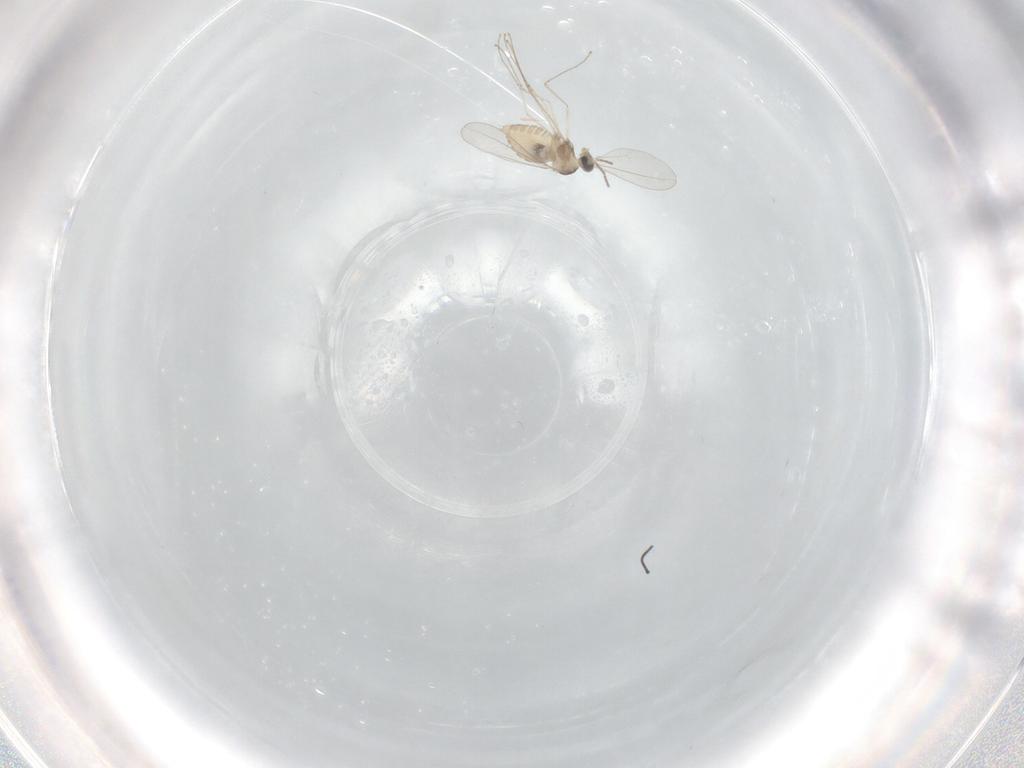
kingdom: Animalia
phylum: Arthropoda
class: Insecta
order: Diptera
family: Cecidomyiidae
